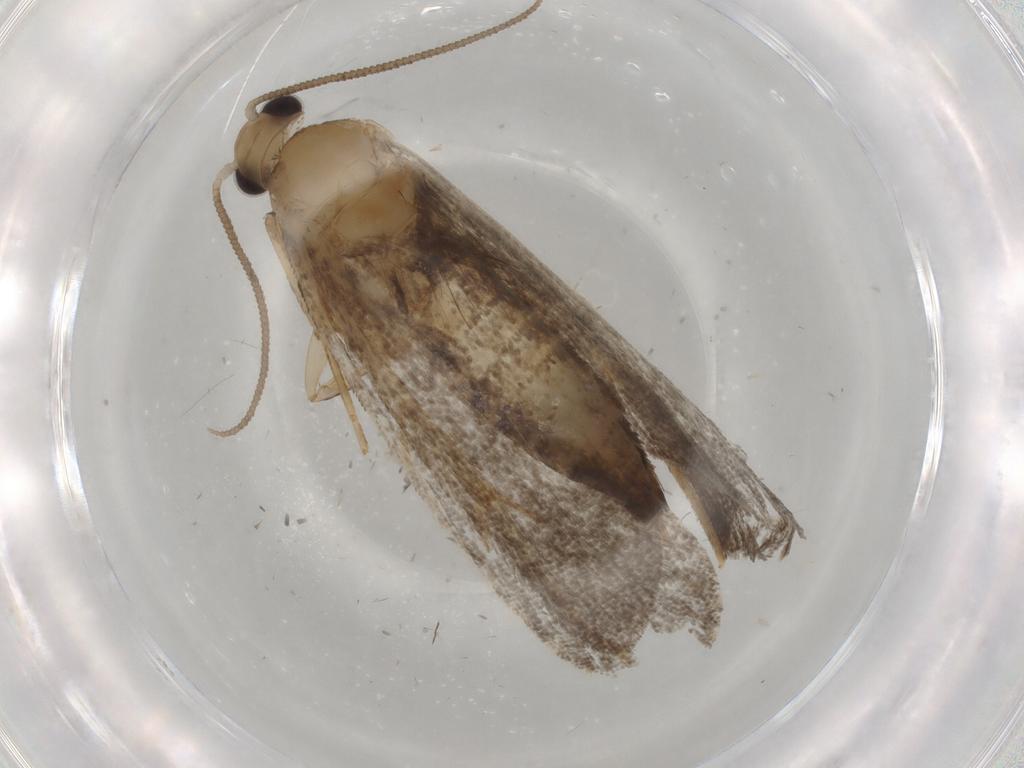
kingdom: Animalia
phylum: Arthropoda
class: Insecta
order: Lepidoptera
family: Tineidae
